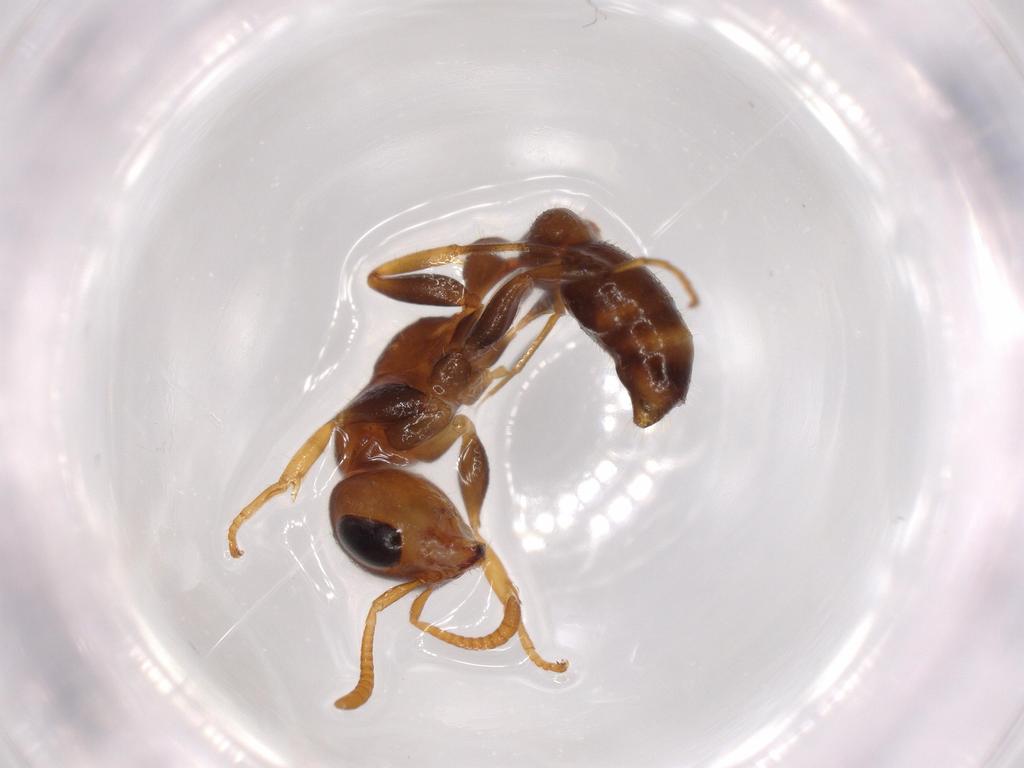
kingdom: Animalia
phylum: Arthropoda
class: Insecta
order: Hymenoptera
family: Formicidae
